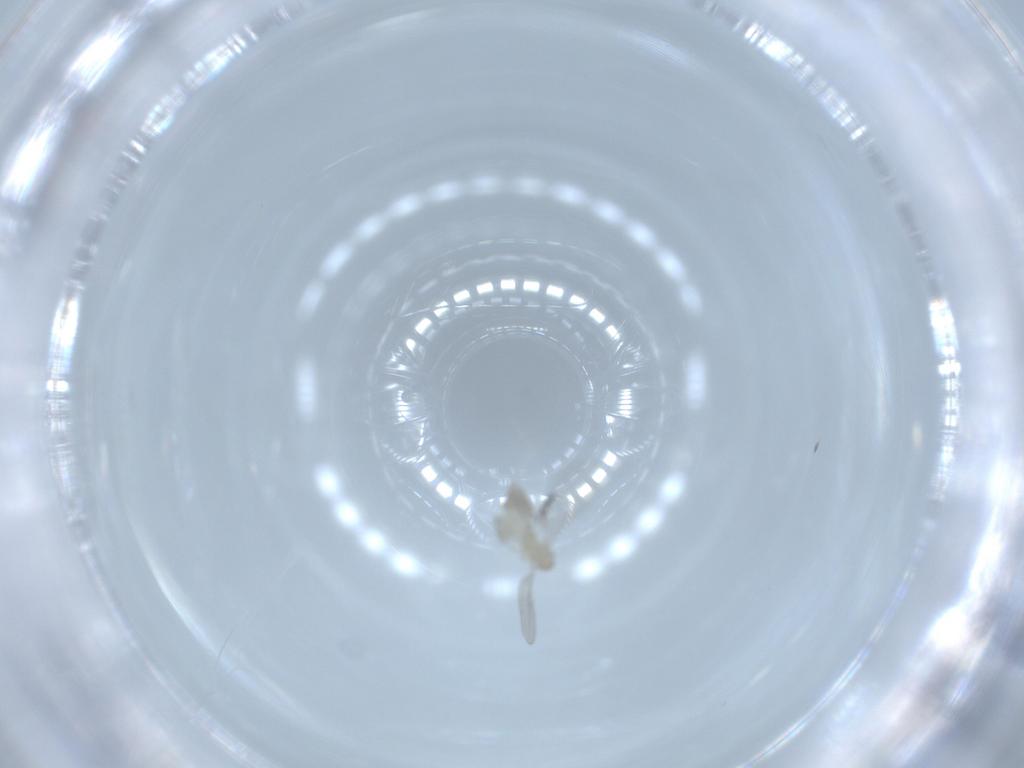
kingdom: Animalia
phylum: Arthropoda
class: Insecta
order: Diptera
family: Cecidomyiidae
